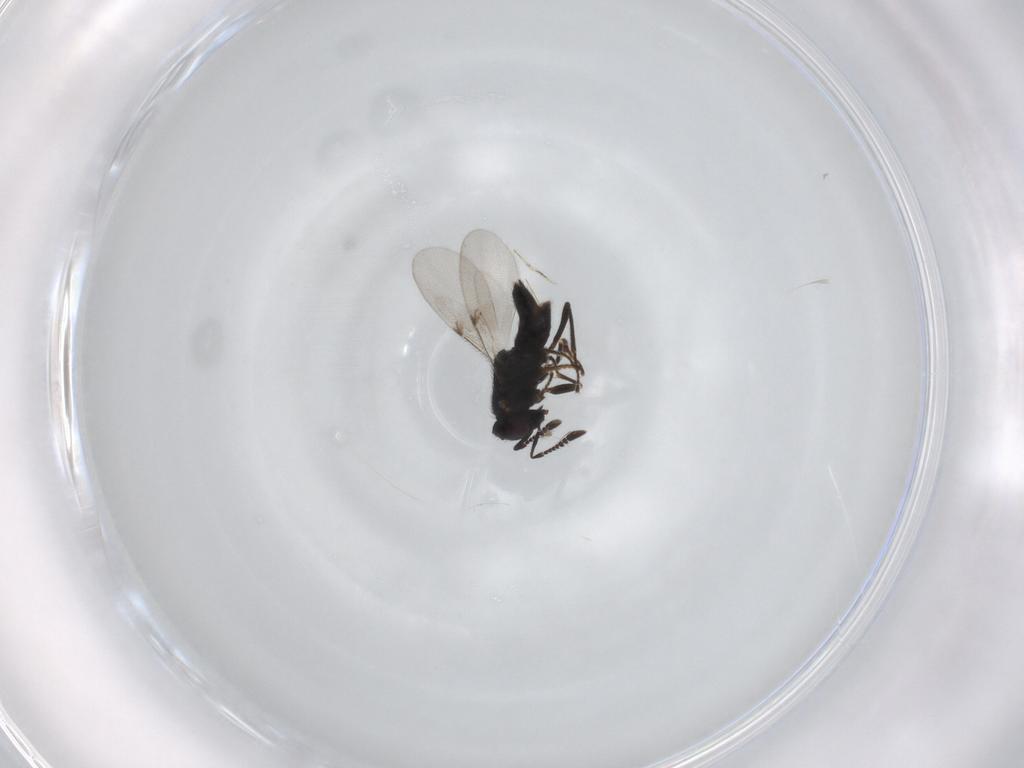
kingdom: Animalia
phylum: Arthropoda
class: Insecta
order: Hymenoptera
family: Encyrtidae
